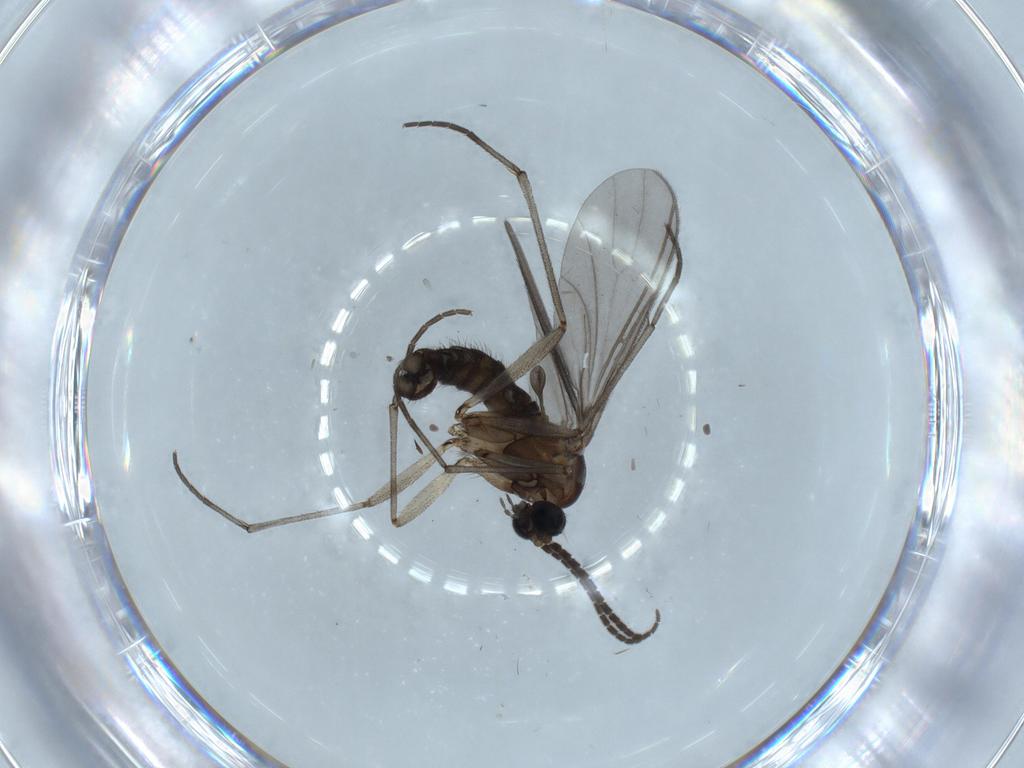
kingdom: Animalia
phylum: Arthropoda
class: Insecta
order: Diptera
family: Sciaridae
